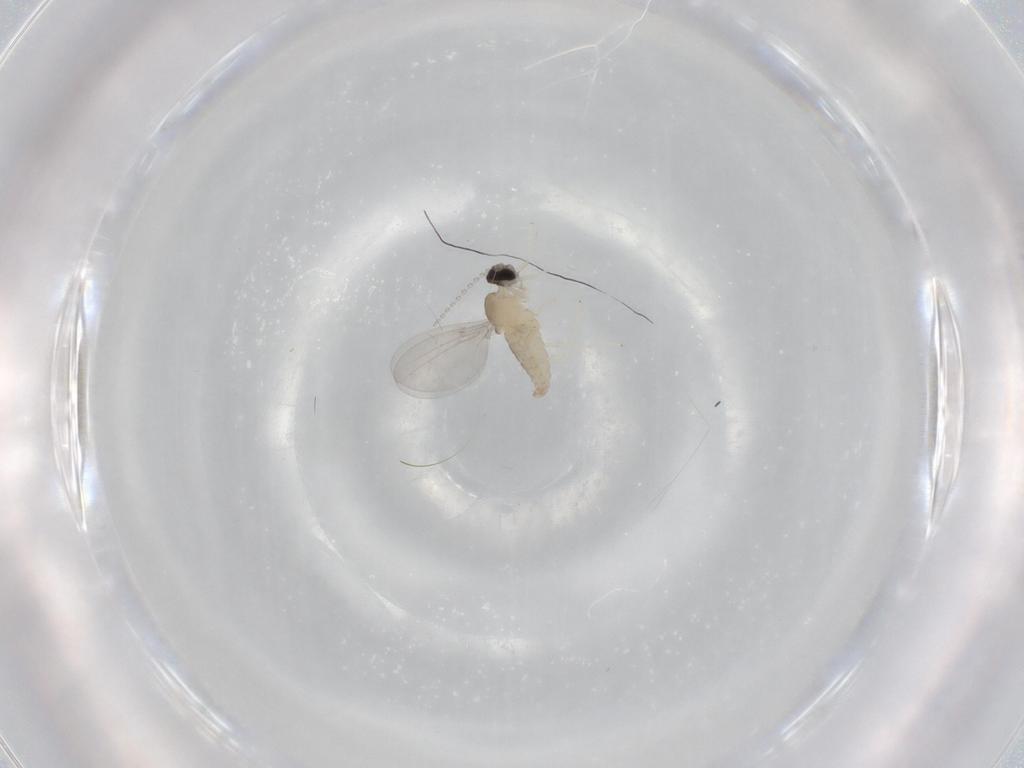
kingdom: Animalia
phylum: Arthropoda
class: Insecta
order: Diptera
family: Cecidomyiidae
